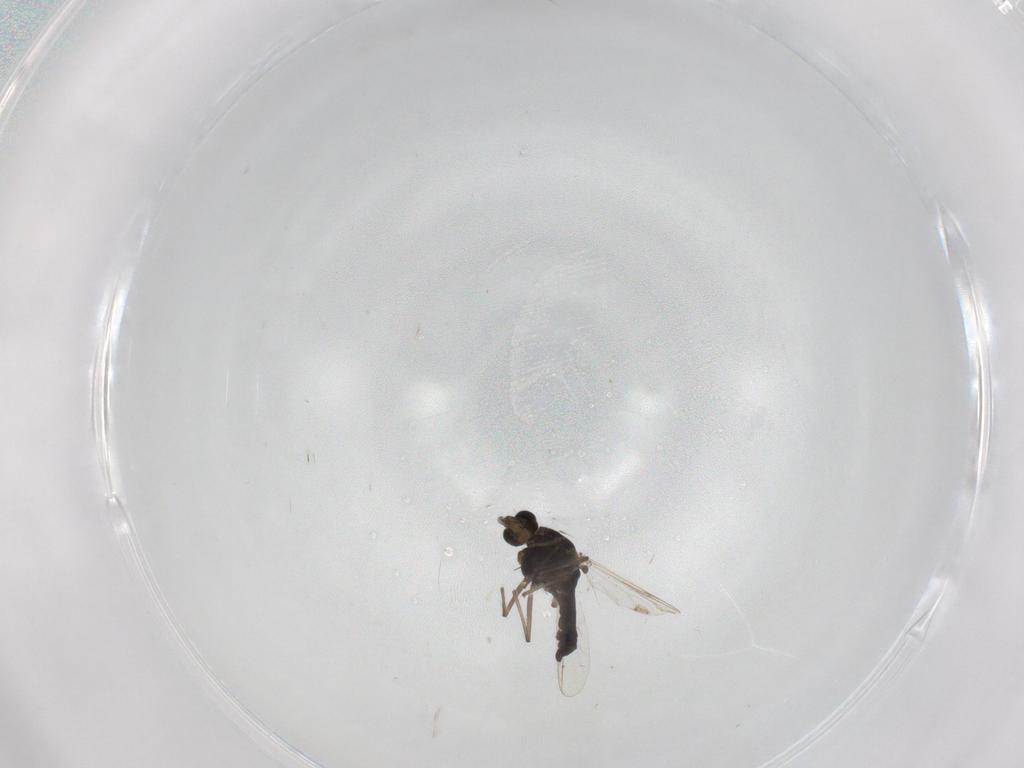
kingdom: Animalia
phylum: Arthropoda
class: Insecta
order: Diptera
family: Chironomidae
